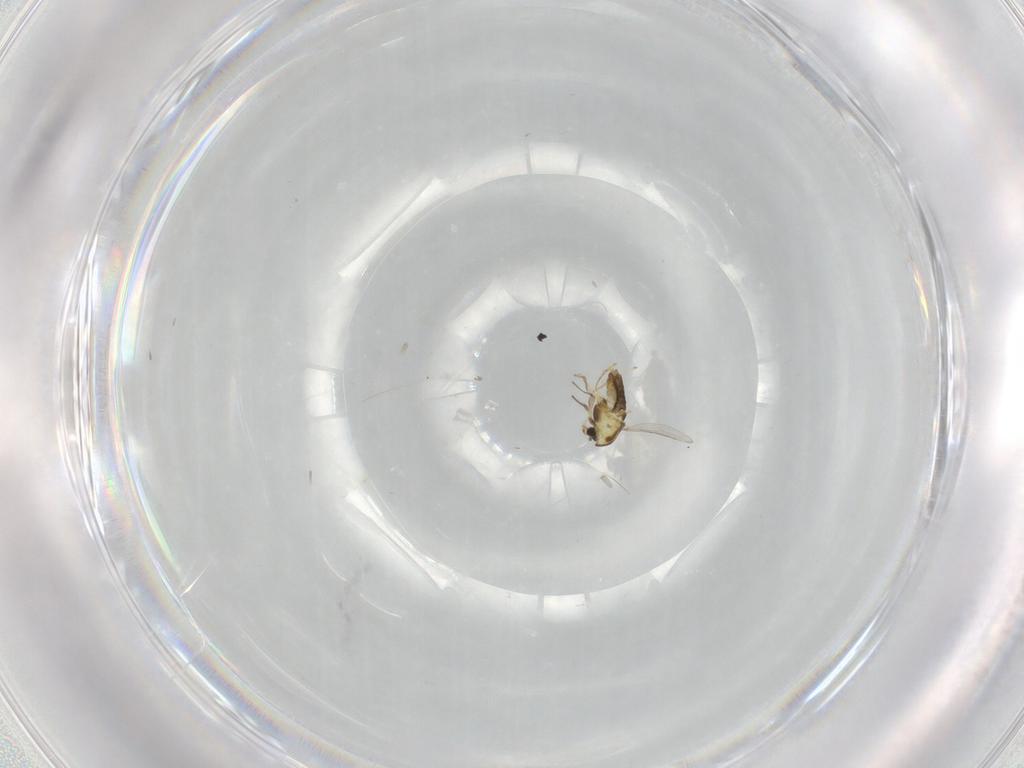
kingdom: Animalia
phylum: Arthropoda
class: Insecta
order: Diptera
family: Chironomidae
